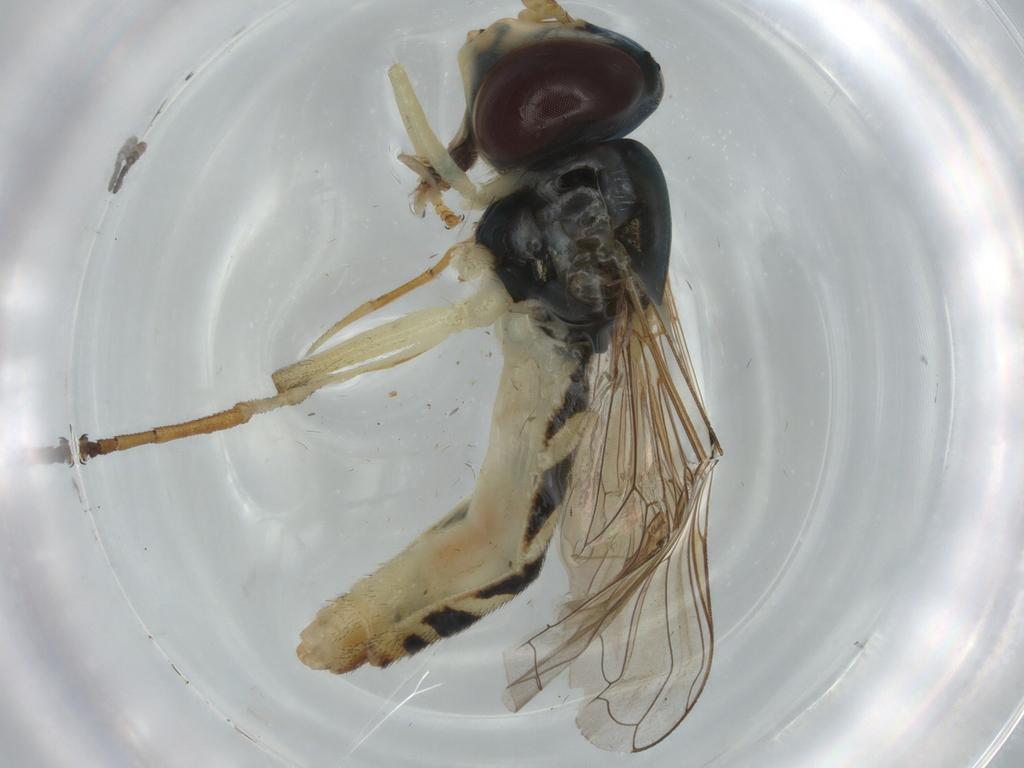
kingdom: Animalia
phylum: Arthropoda
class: Insecta
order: Diptera
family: Syrphidae
